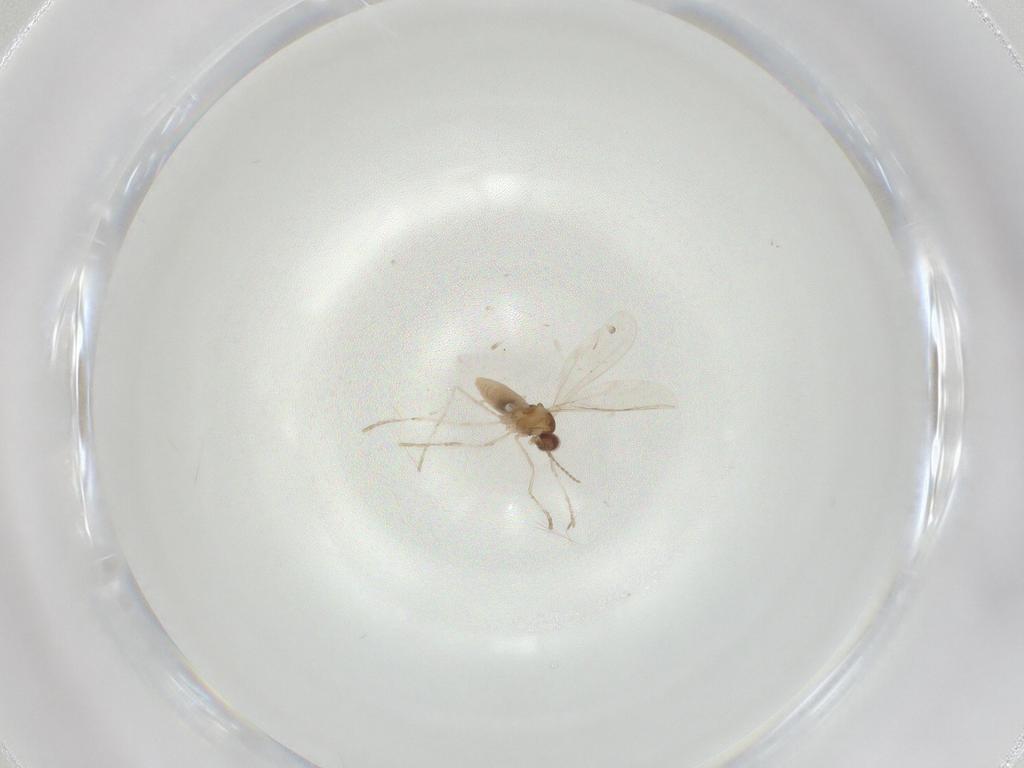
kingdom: Animalia
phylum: Arthropoda
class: Insecta
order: Diptera
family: Cecidomyiidae
